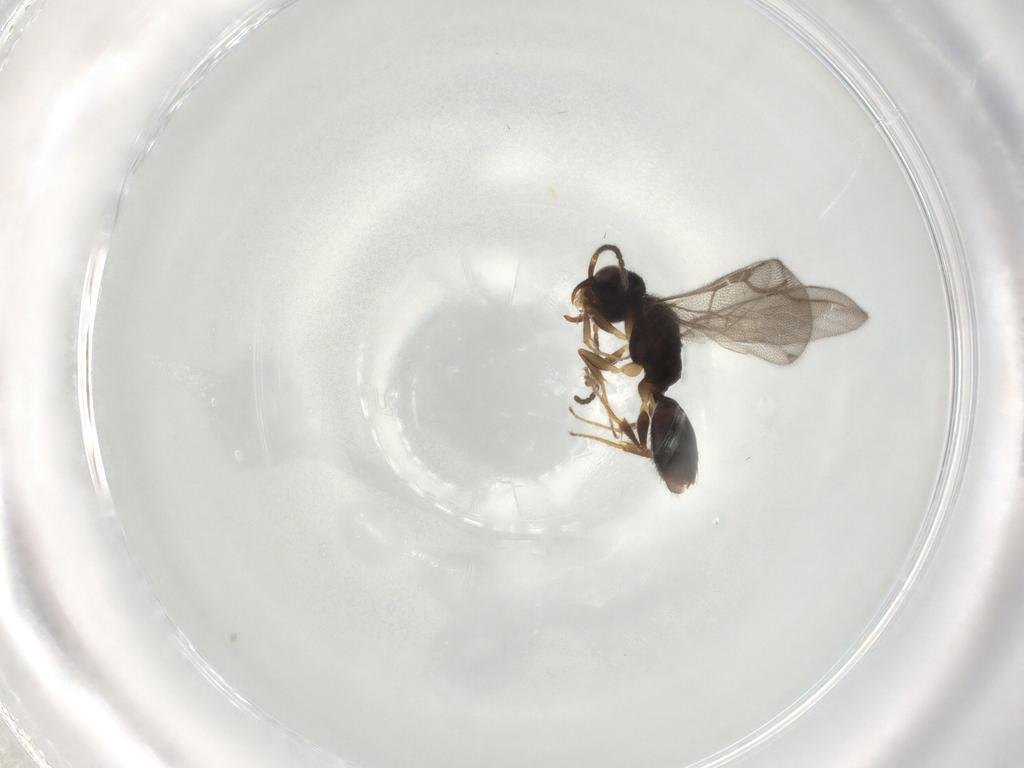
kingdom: Animalia
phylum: Arthropoda
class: Insecta
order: Hymenoptera
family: Bethylidae
